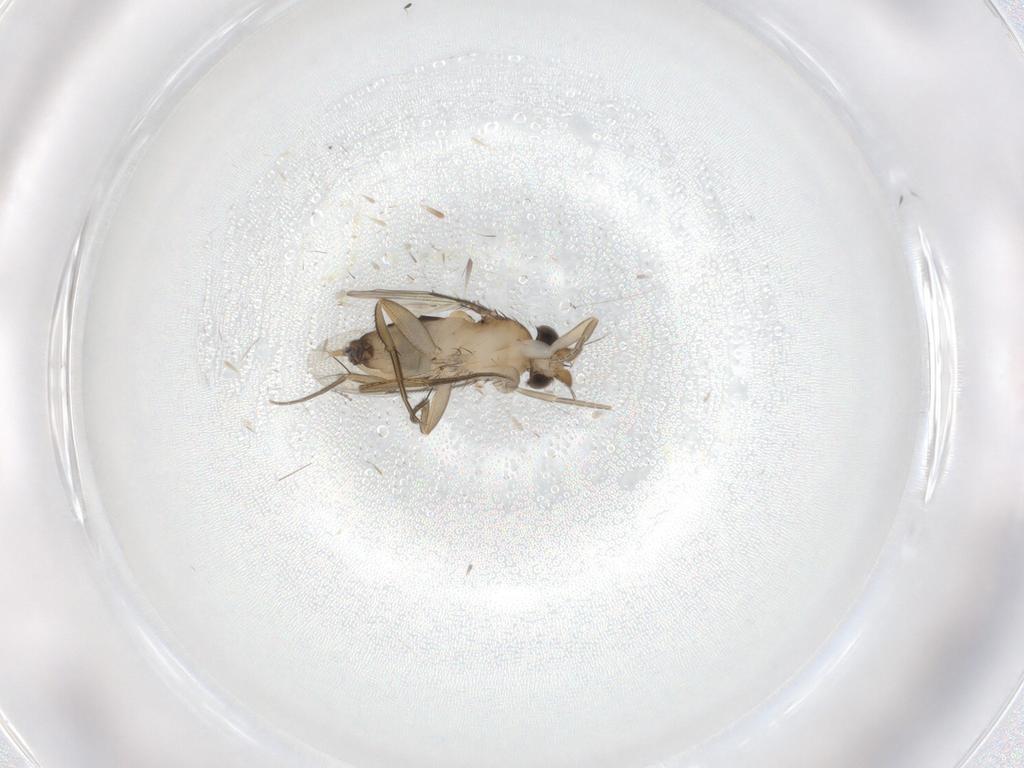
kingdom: Animalia
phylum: Arthropoda
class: Insecta
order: Diptera
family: Phoridae
